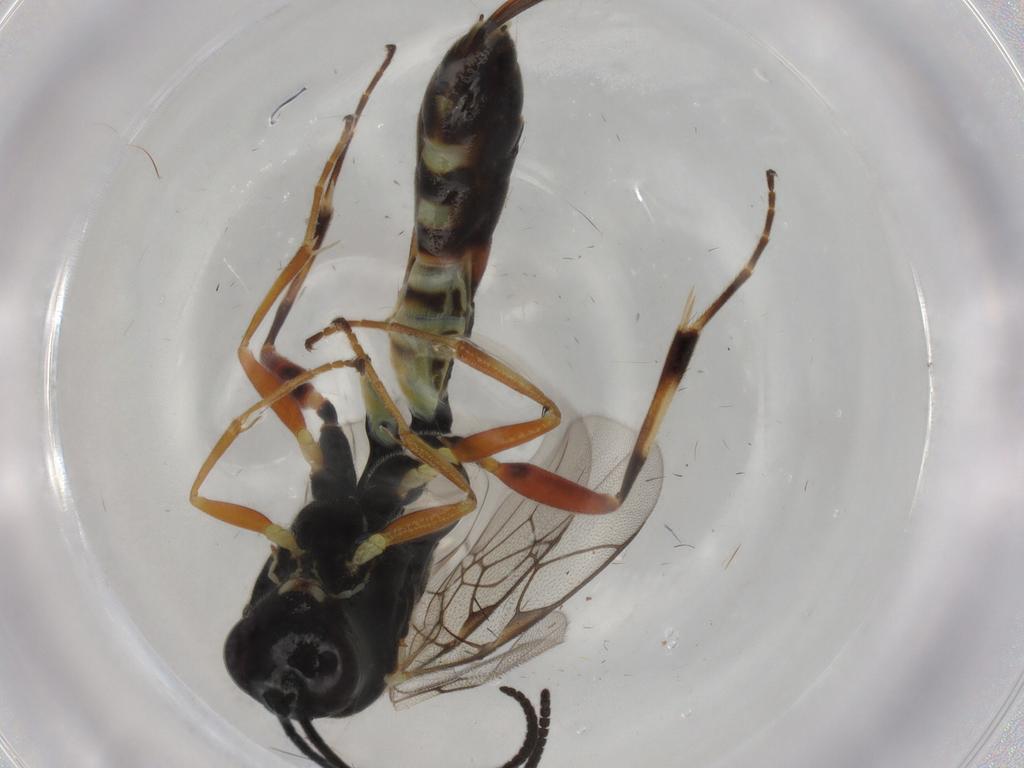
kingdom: Animalia
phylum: Arthropoda
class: Insecta
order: Hymenoptera
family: Ichneumonidae
